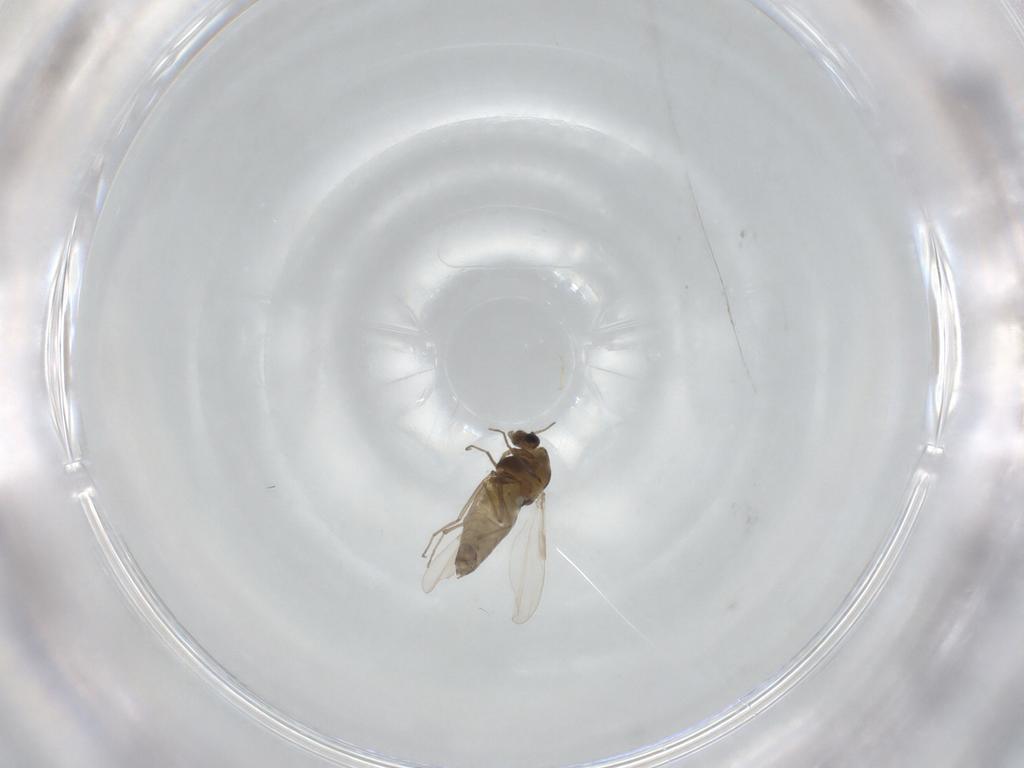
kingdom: Animalia
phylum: Arthropoda
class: Insecta
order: Diptera
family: Chironomidae
